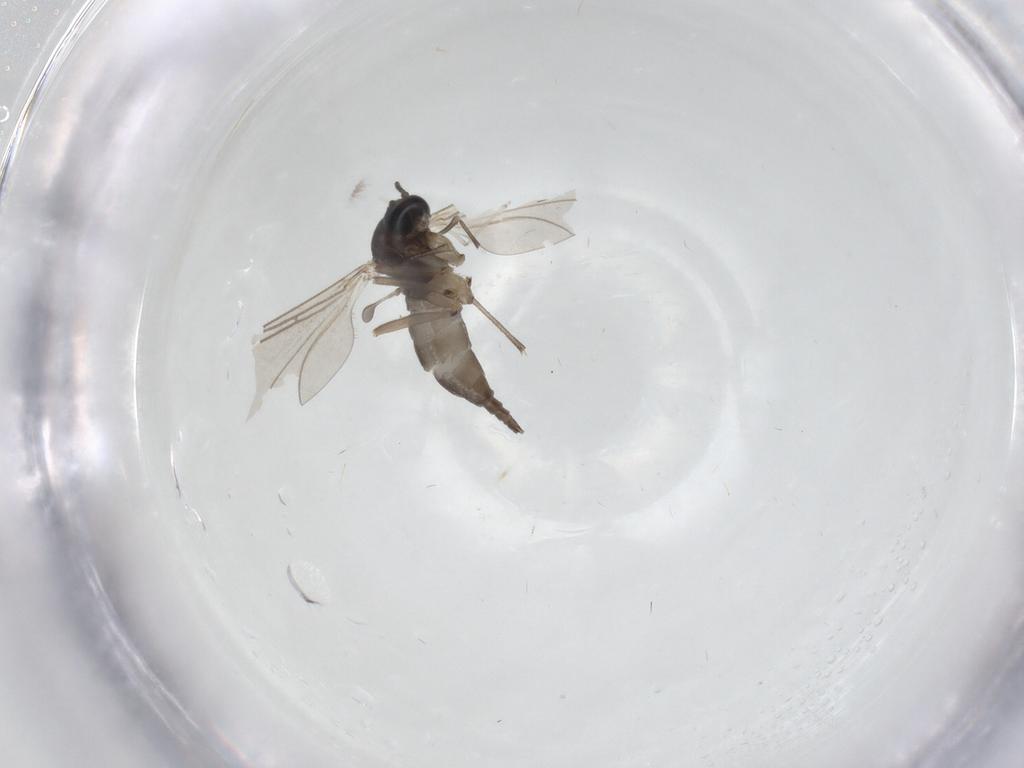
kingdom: Animalia
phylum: Arthropoda
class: Insecta
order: Diptera
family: Sciaridae
